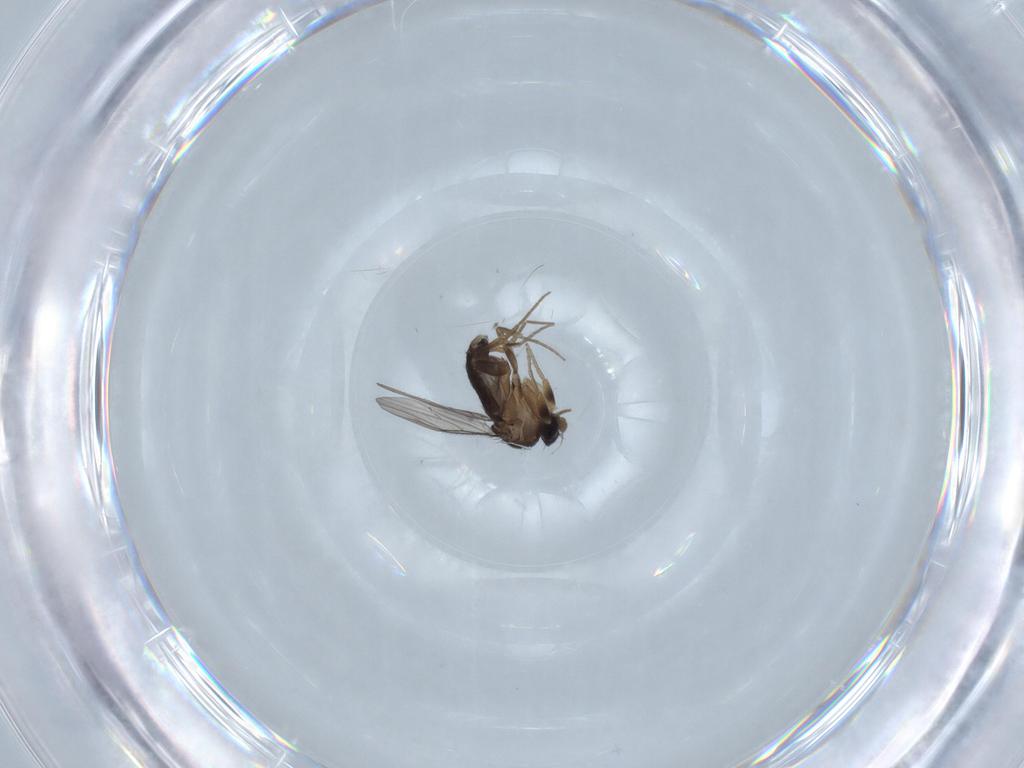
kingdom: Animalia
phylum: Arthropoda
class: Insecta
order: Diptera
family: Phoridae
